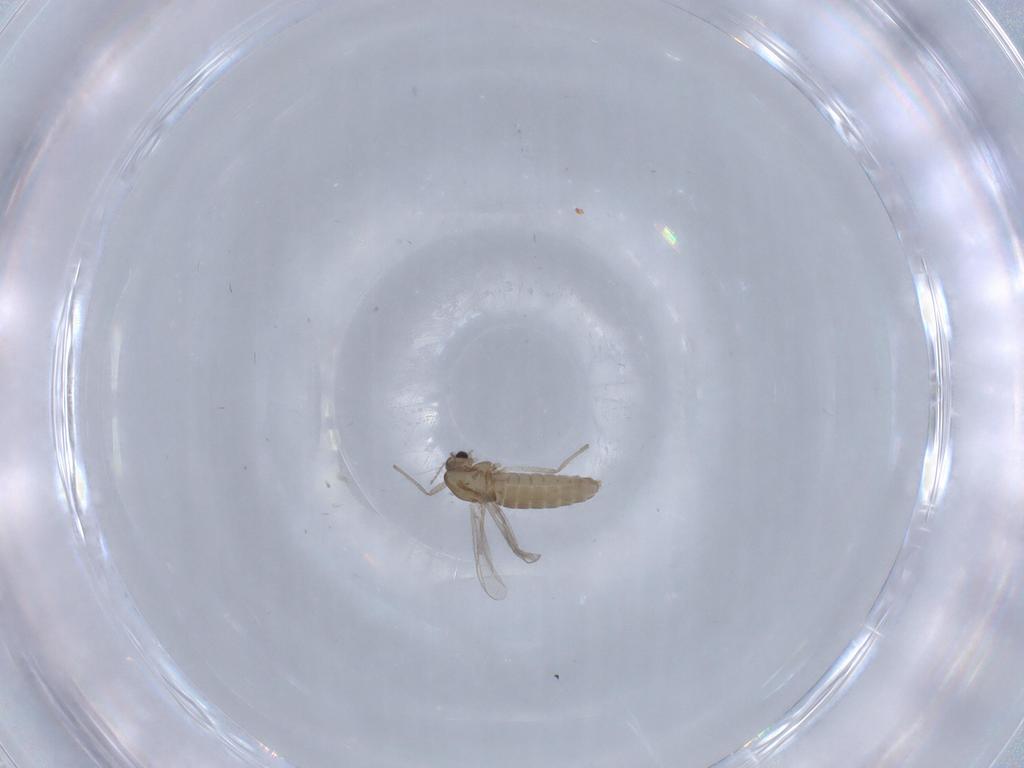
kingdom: Animalia
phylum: Arthropoda
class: Insecta
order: Diptera
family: Chironomidae
